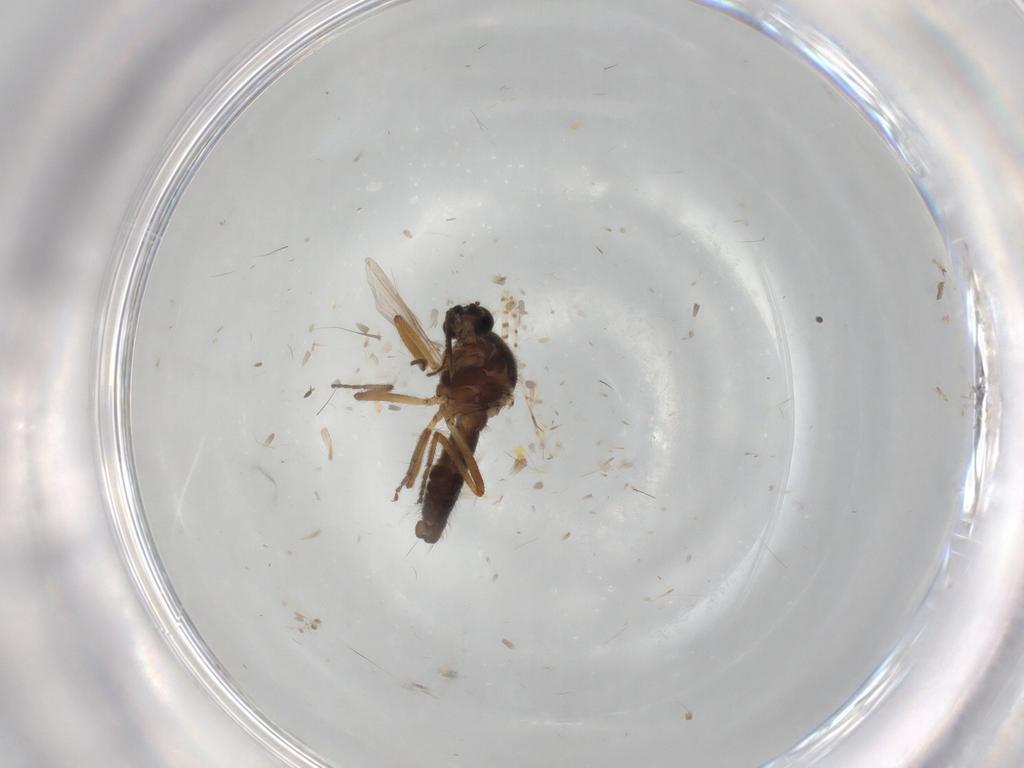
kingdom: Animalia
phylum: Arthropoda
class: Insecta
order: Diptera
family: Ceratopogonidae
